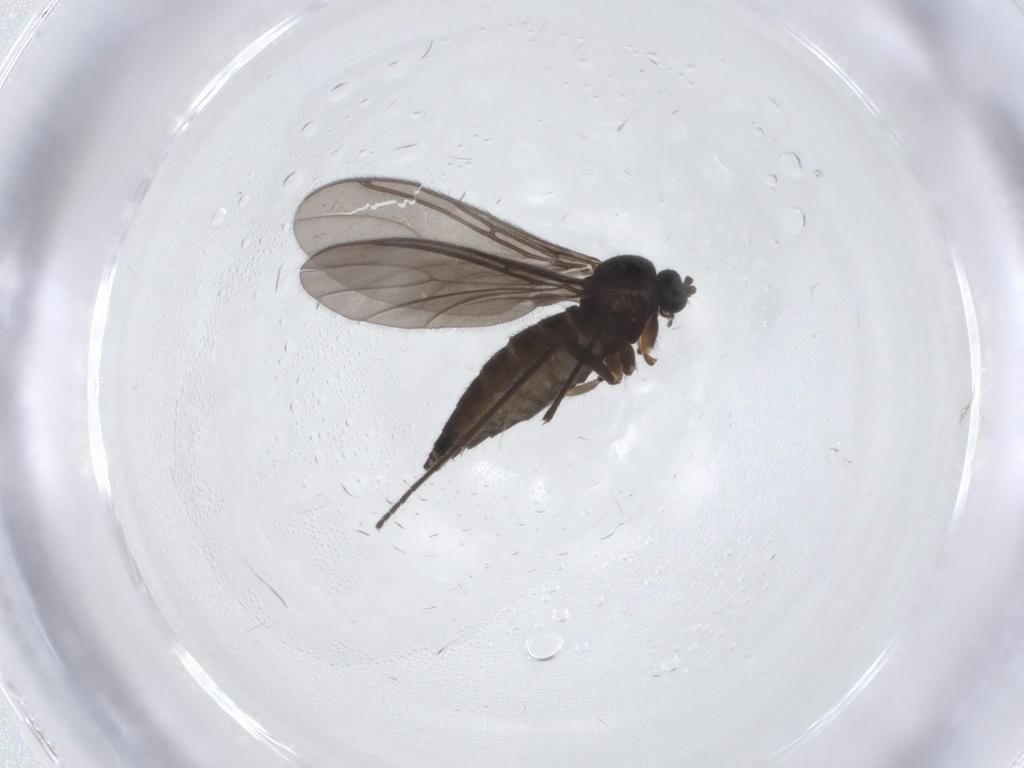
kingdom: Animalia
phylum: Arthropoda
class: Insecta
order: Diptera
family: Sciaridae
